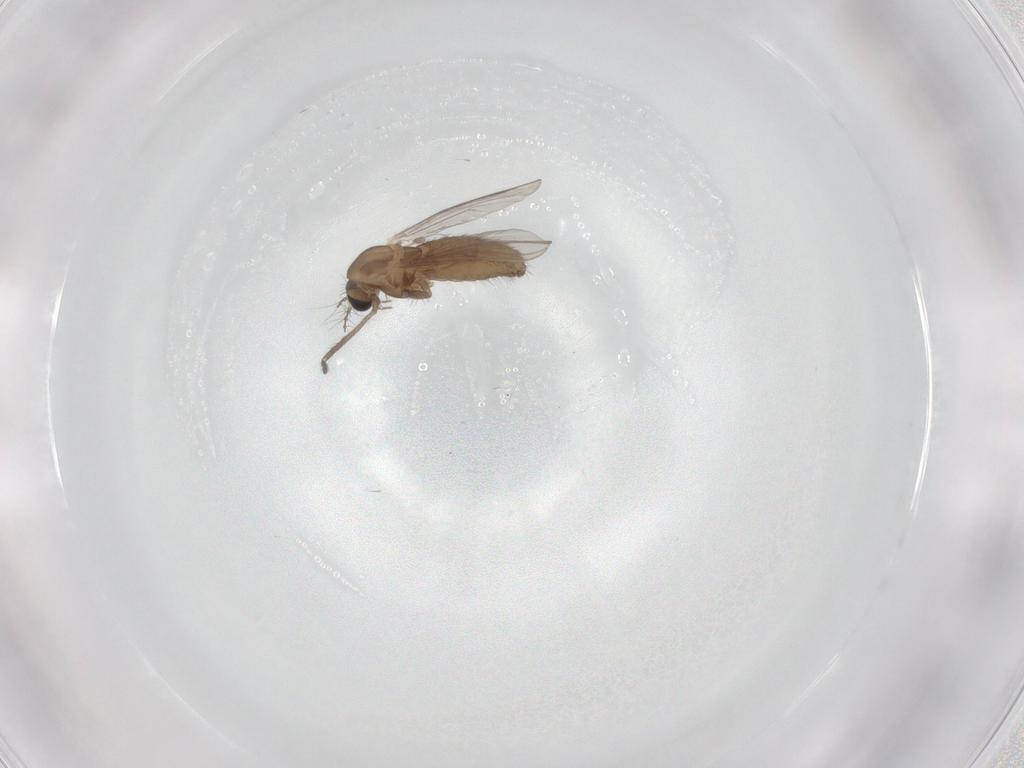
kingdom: Animalia
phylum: Arthropoda
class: Insecta
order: Diptera
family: Chironomidae
